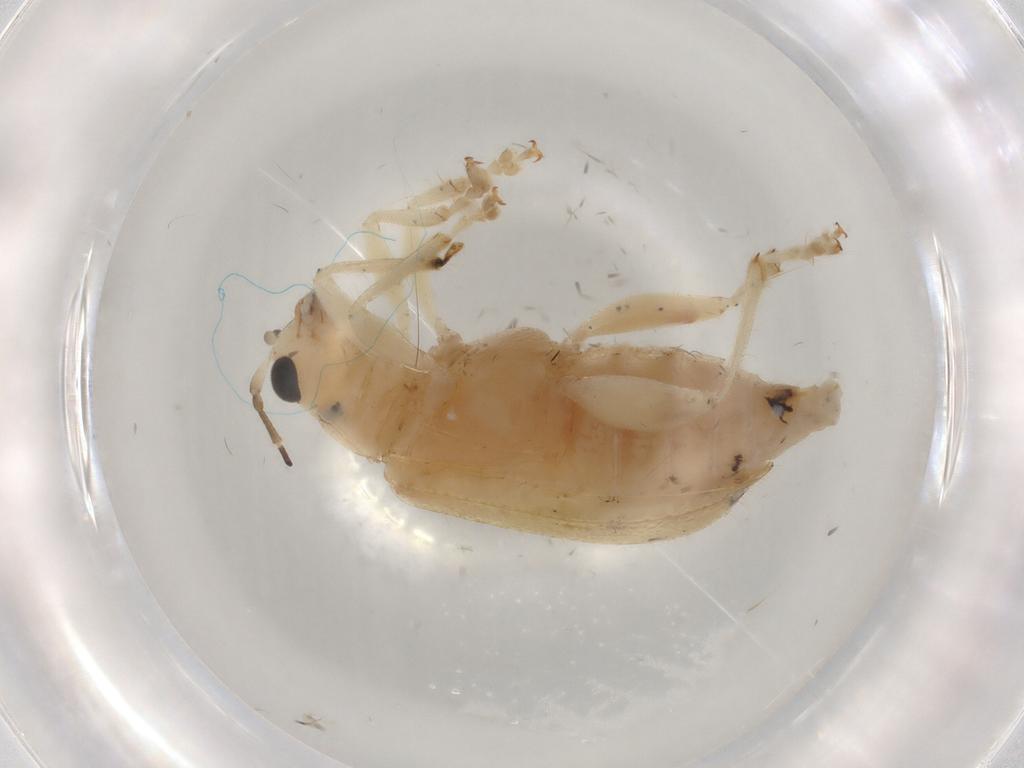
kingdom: Animalia
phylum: Arthropoda
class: Insecta
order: Coleoptera
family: Chrysomelidae
